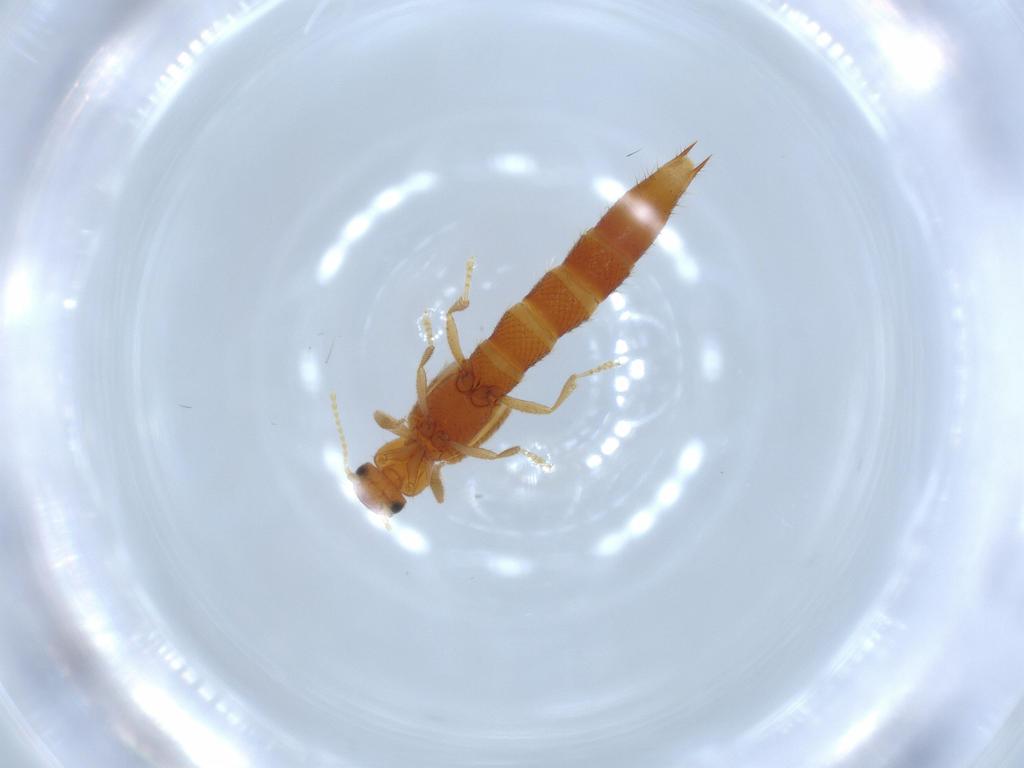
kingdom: Animalia
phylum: Arthropoda
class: Insecta
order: Coleoptera
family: Staphylinidae
